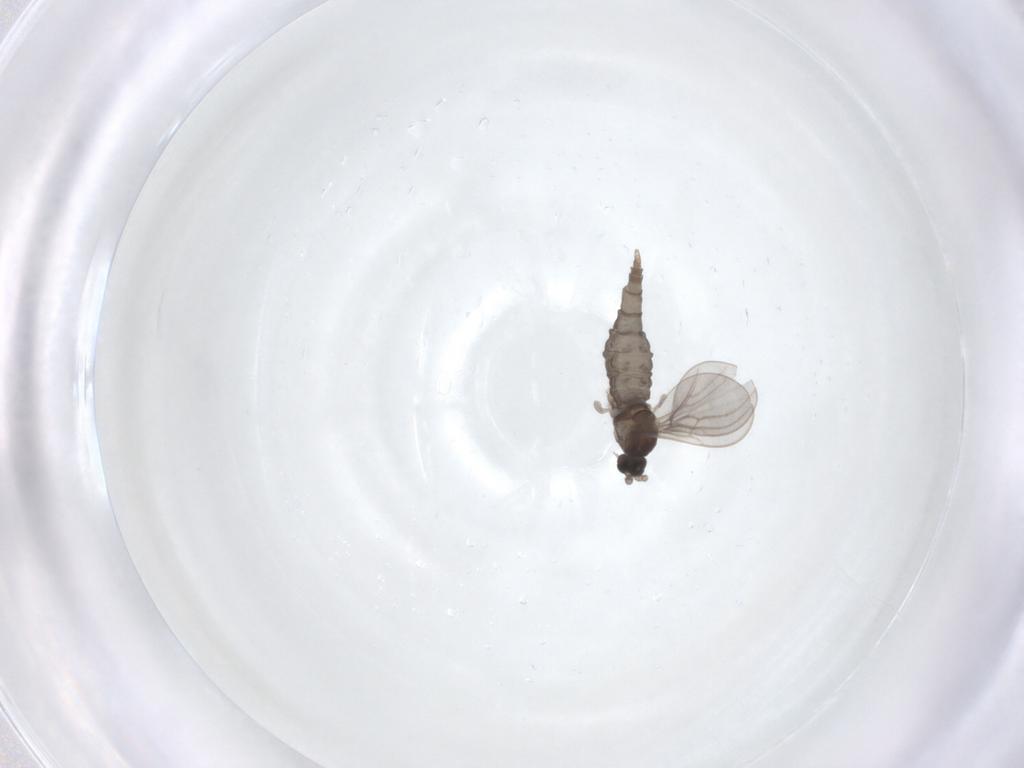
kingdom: Animalia
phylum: Arthropoda
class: Insecta
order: Diptera
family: Cecidomyiidae
